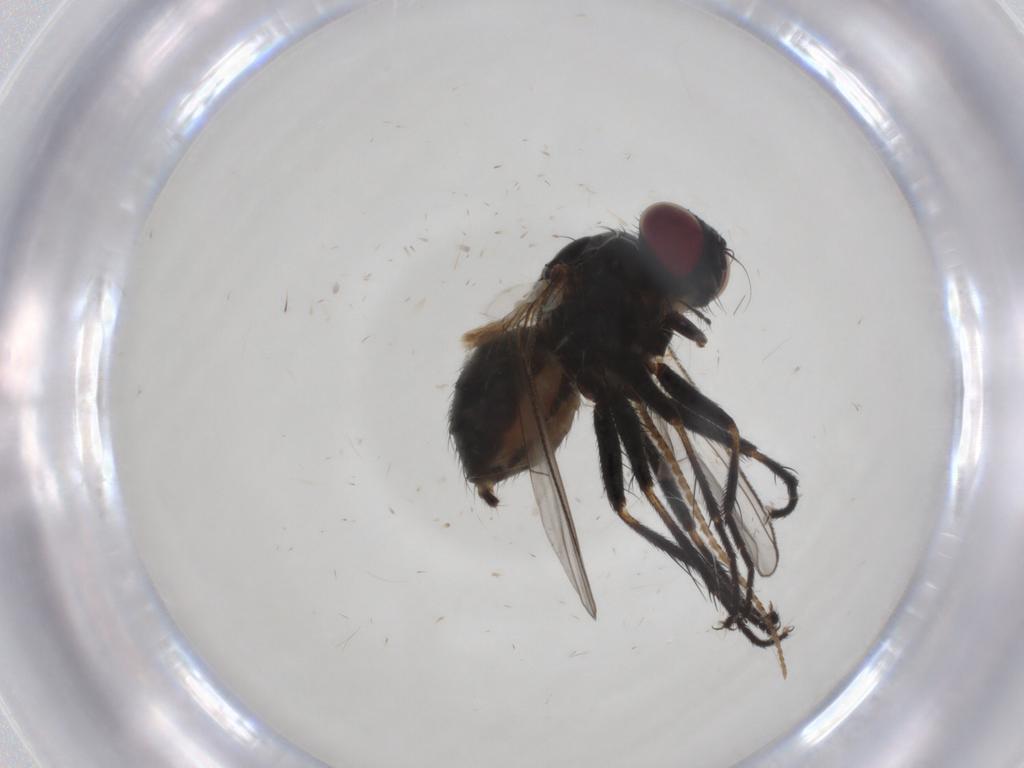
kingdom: Animalia
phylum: Arthropoda
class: Insecta
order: Diptera
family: Muscidae
